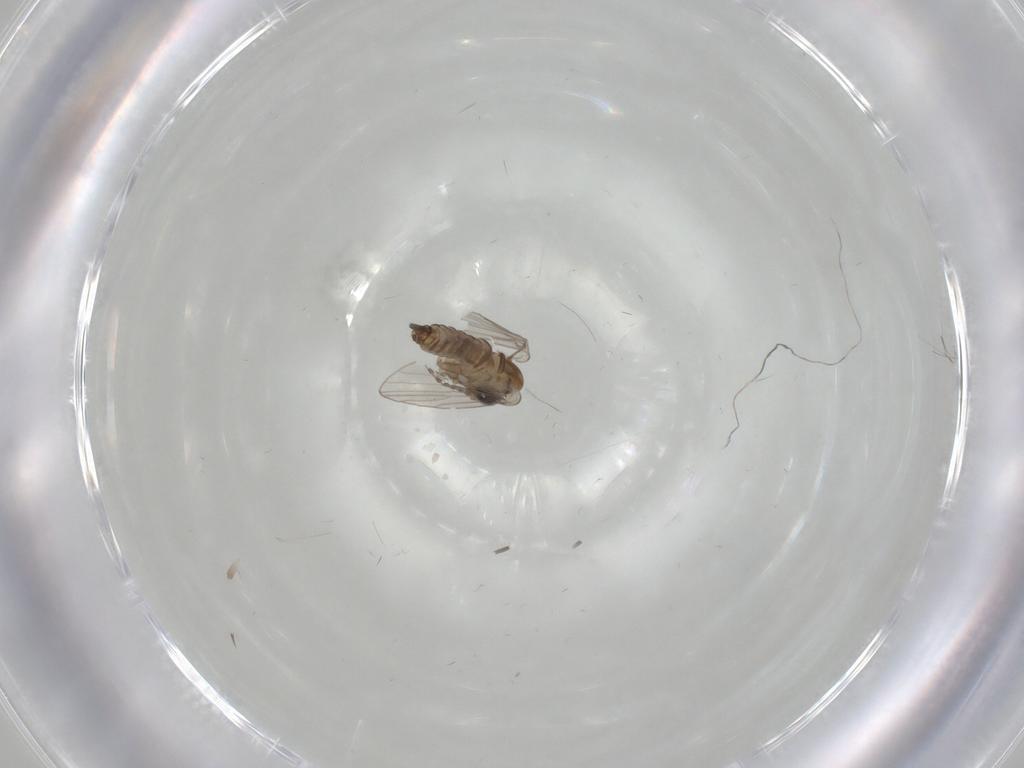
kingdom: Animalia
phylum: Arthropoda
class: Insecta
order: Diptera
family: Psychodidae
